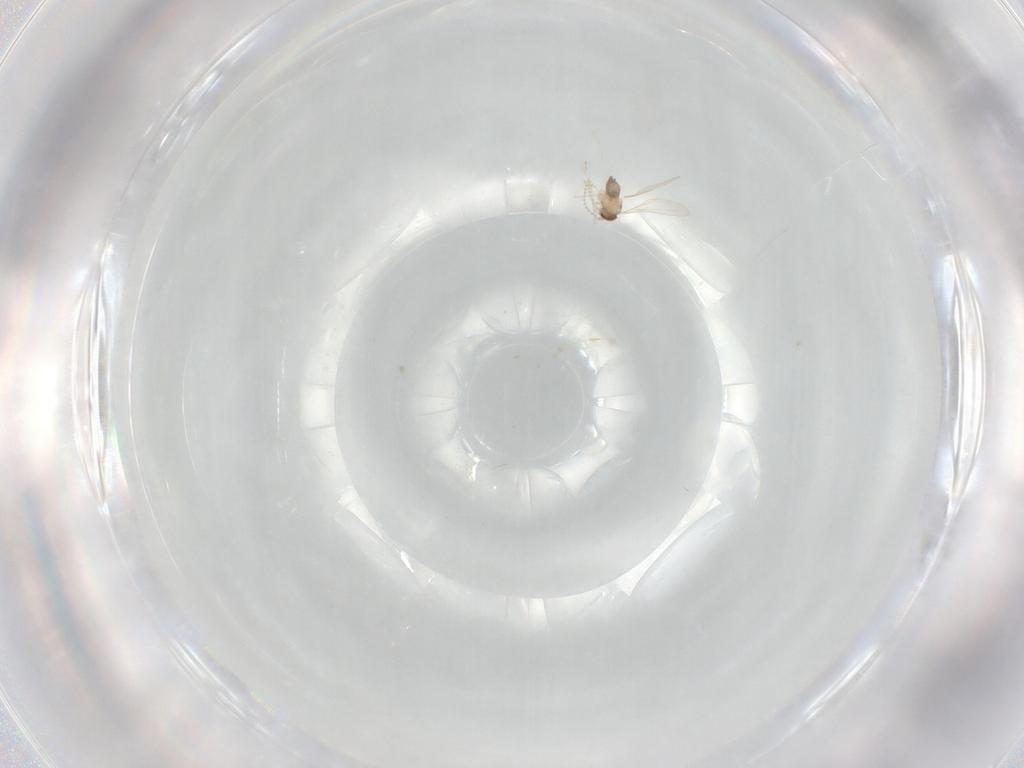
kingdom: Animalia
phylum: Arthropoda
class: Insecta
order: Diptera
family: Cecidomyiidae
